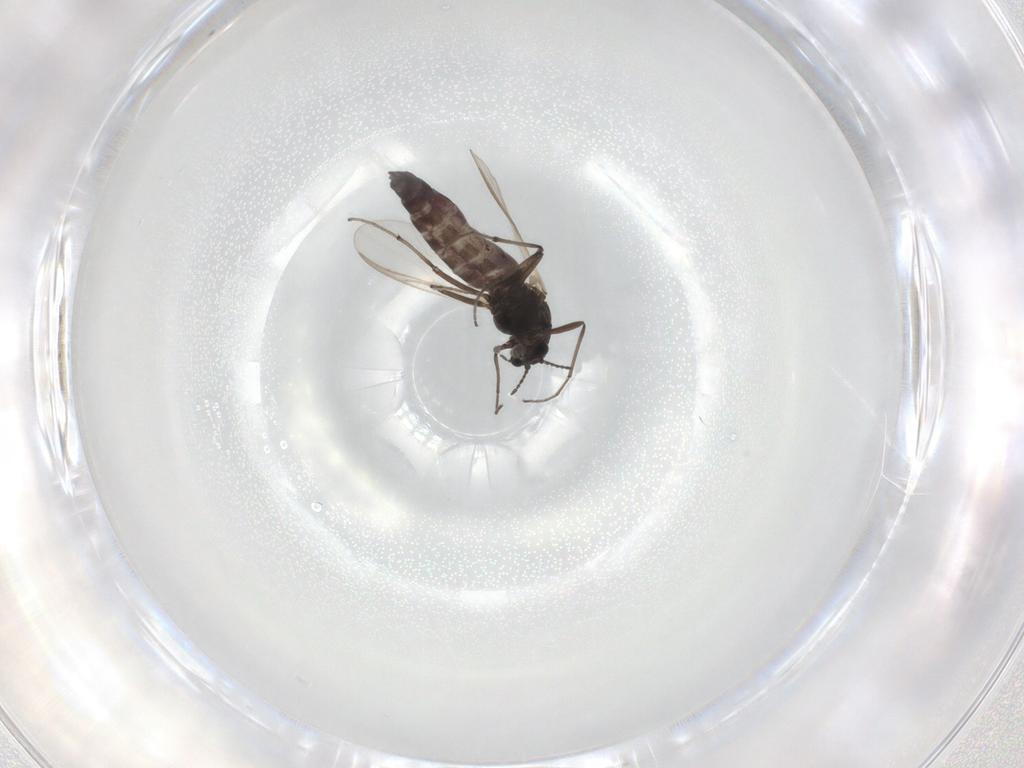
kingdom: Animalia
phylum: Arthropoda
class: Insecta
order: Diptera
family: Chironomidae
